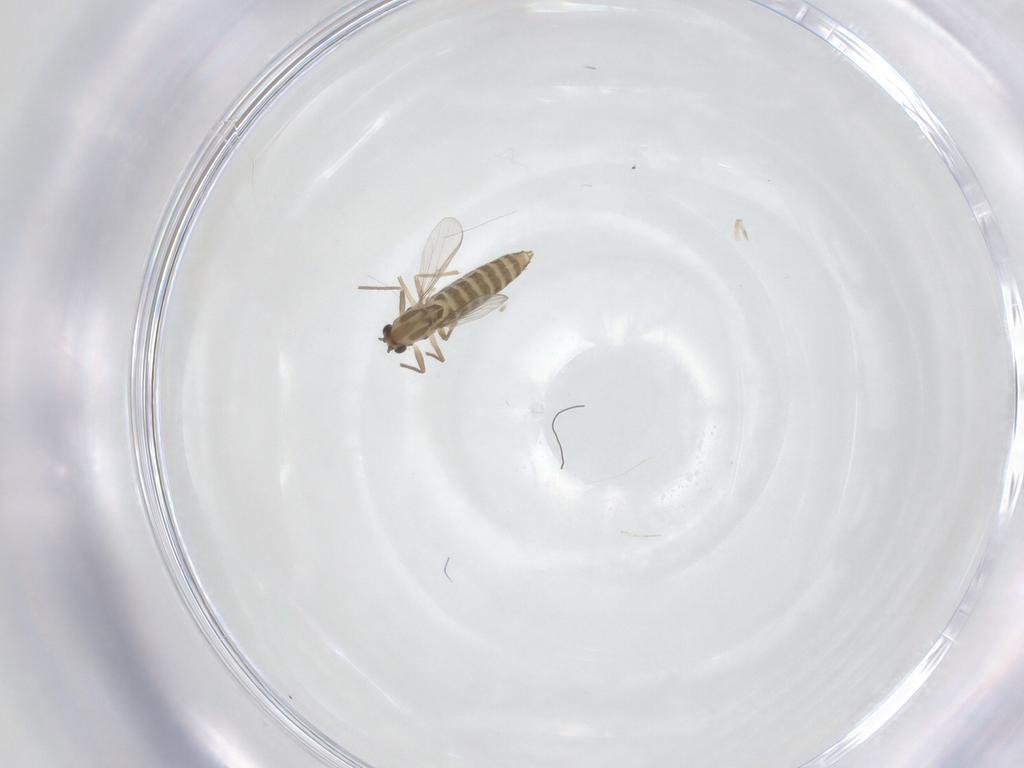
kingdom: Animalia
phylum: Arthropoda
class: Insecta
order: Diptera
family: Chironomidae
